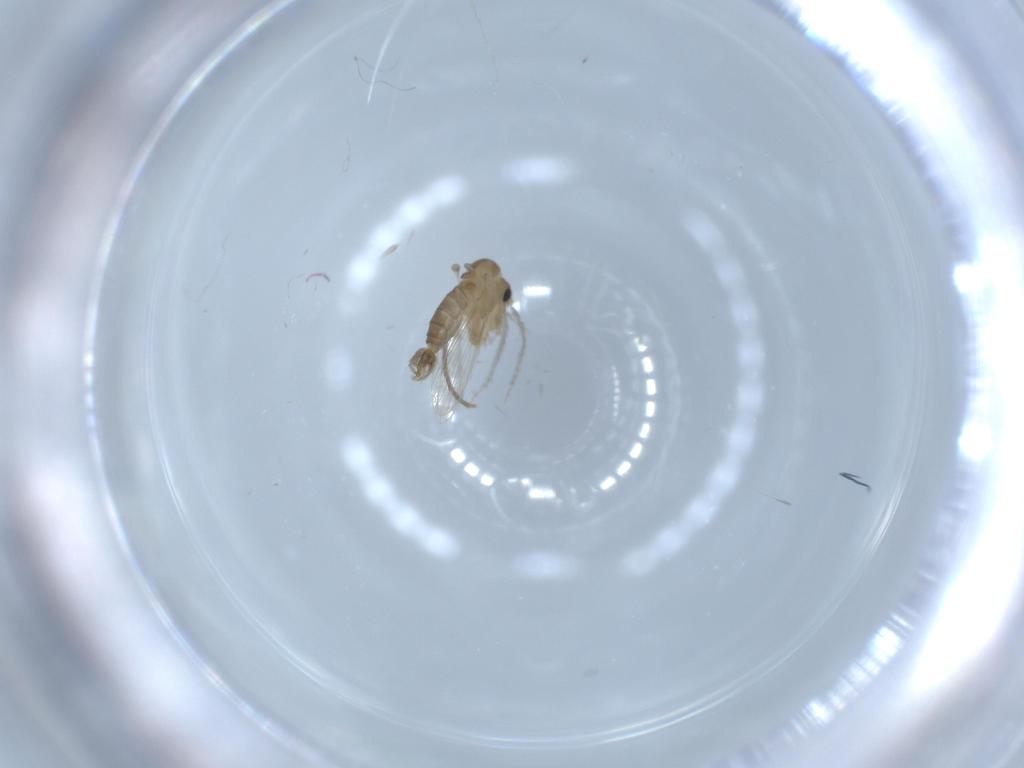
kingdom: Animalia
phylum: Arthropoda
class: Insecta
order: Diptera
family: Psychodidae
